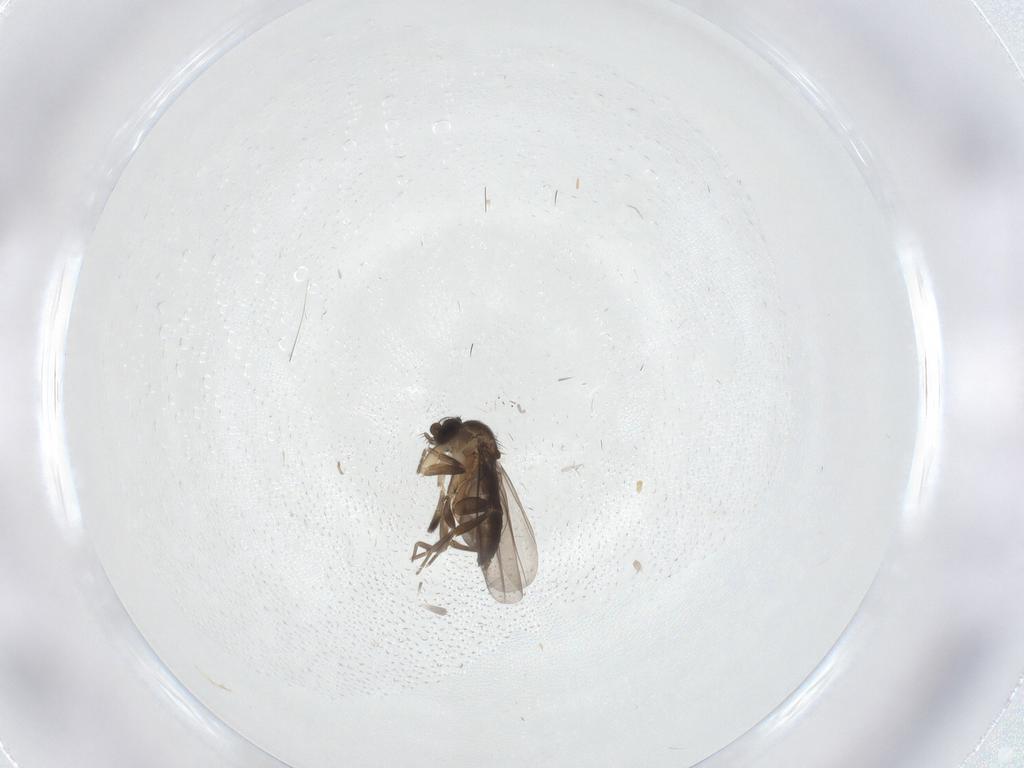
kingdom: Animalia
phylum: Arthropoda
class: Insecta
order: Diptera
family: Phoridae
